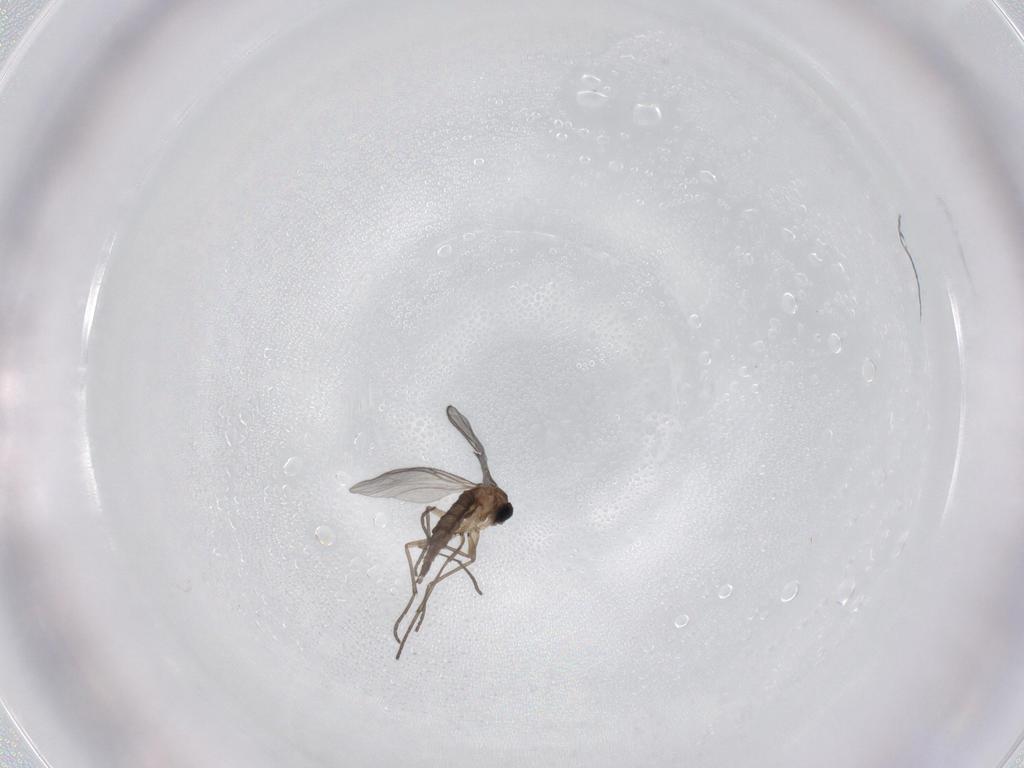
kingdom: Animalia
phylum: Arthropoda
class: Insecta
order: Diptera
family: Sciaridae
